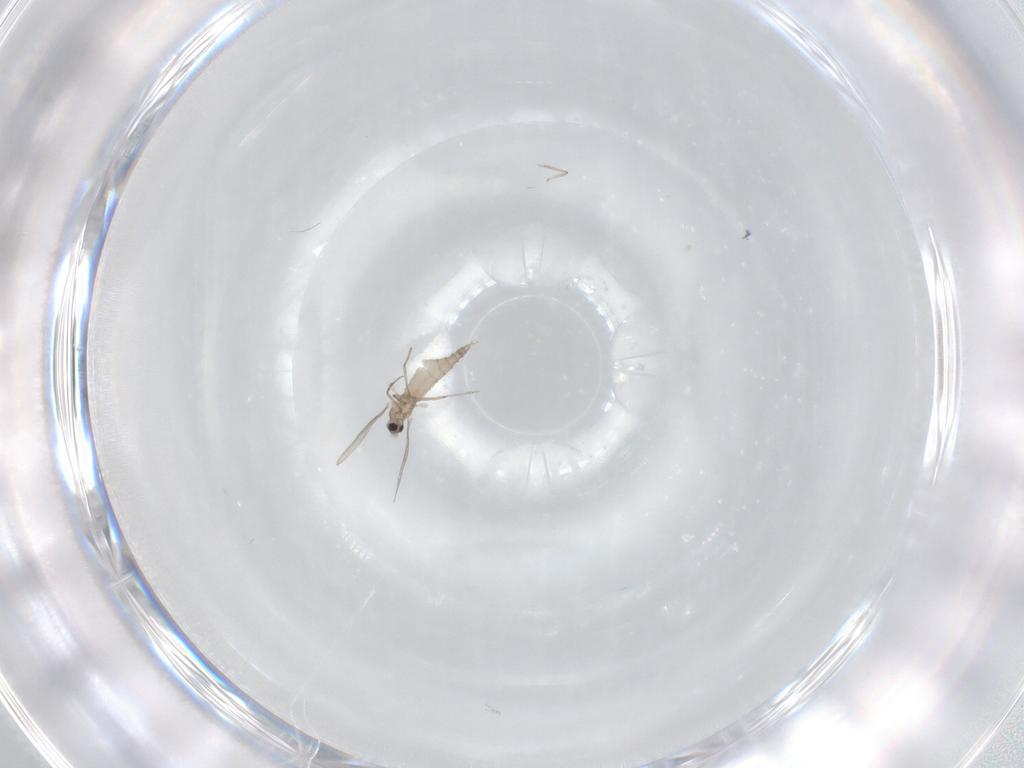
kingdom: Animalia
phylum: Arthropoda
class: Insecta
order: Diptera
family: Cecidomyiidae
